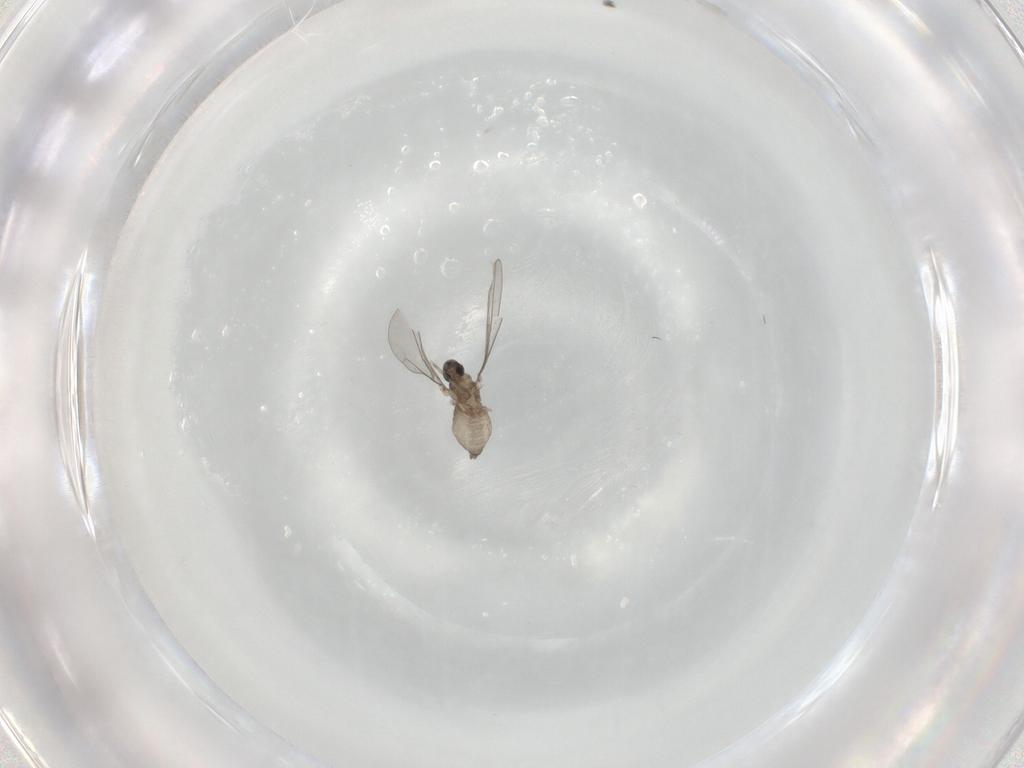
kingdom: Animalia
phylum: Arthropoda
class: Insecta
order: Diptera
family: Cecidomyiidae
